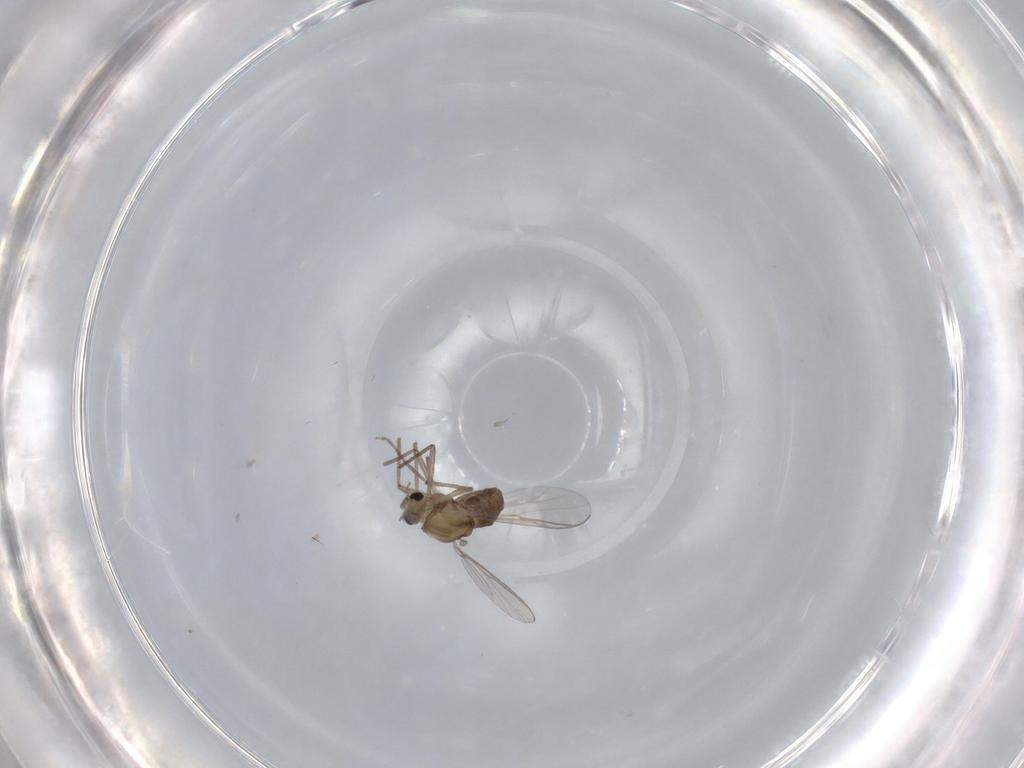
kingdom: Animalia
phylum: Arthropoda
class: Insecta
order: Diptera
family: Chironomidae
